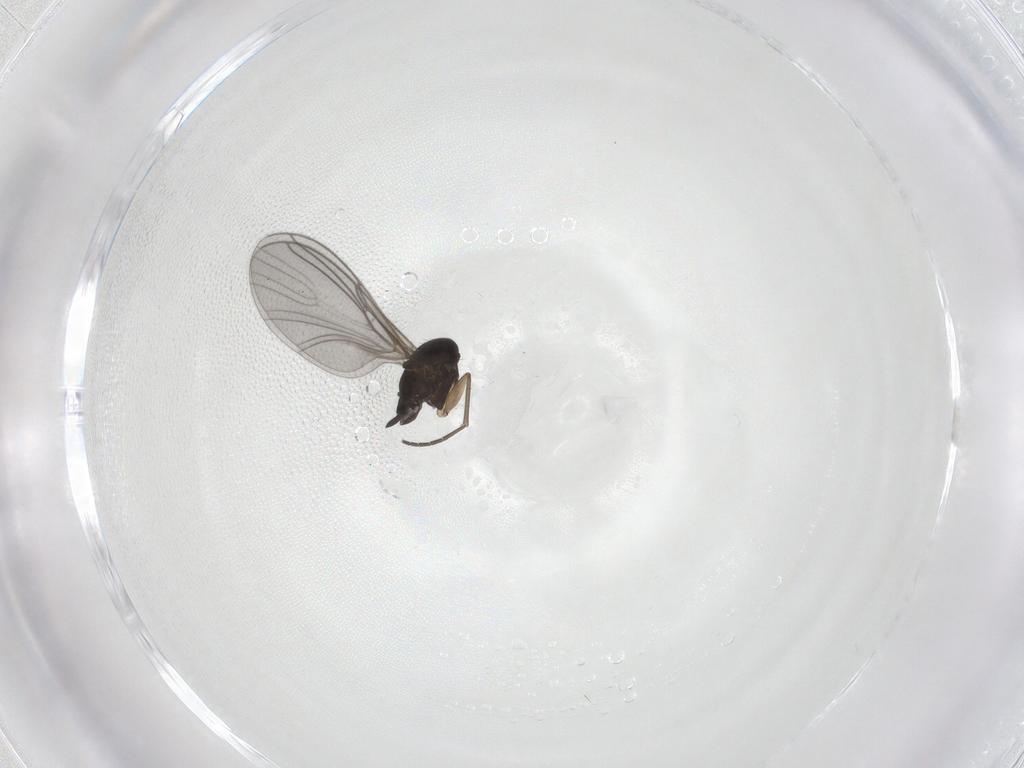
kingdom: Animalia
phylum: Arthropoda
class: Insecta
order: Diptera
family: Sciaridae
